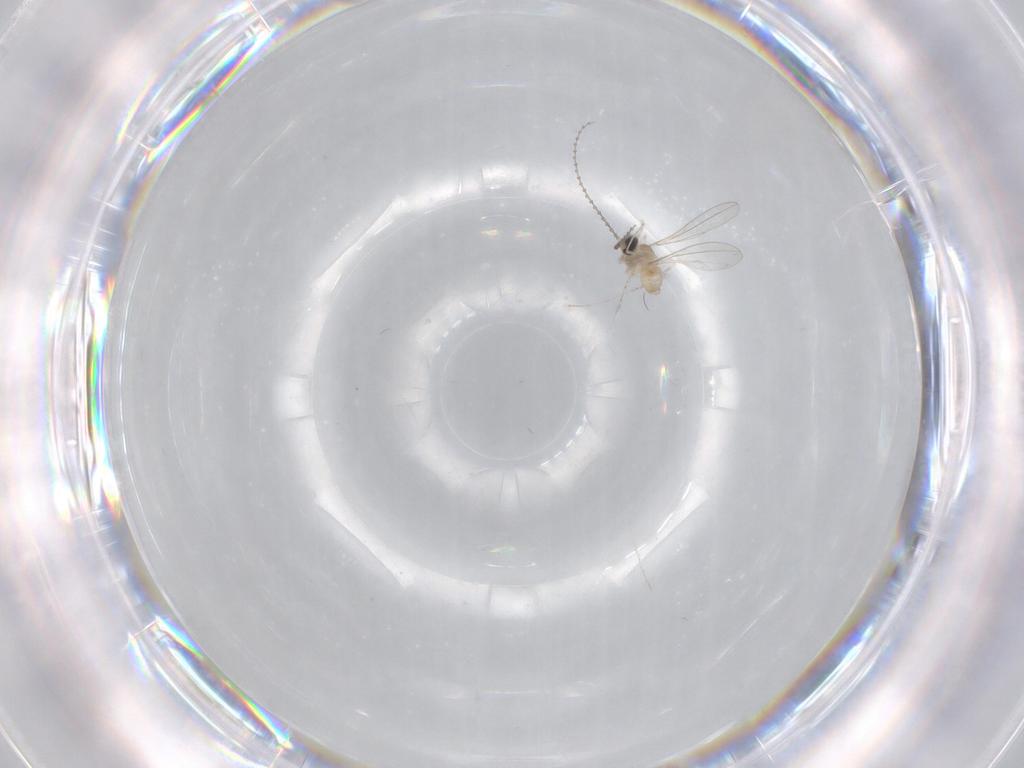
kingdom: Animalia
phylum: Arthropoda
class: Insecta
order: Diptera
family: Cecidomyiidae
